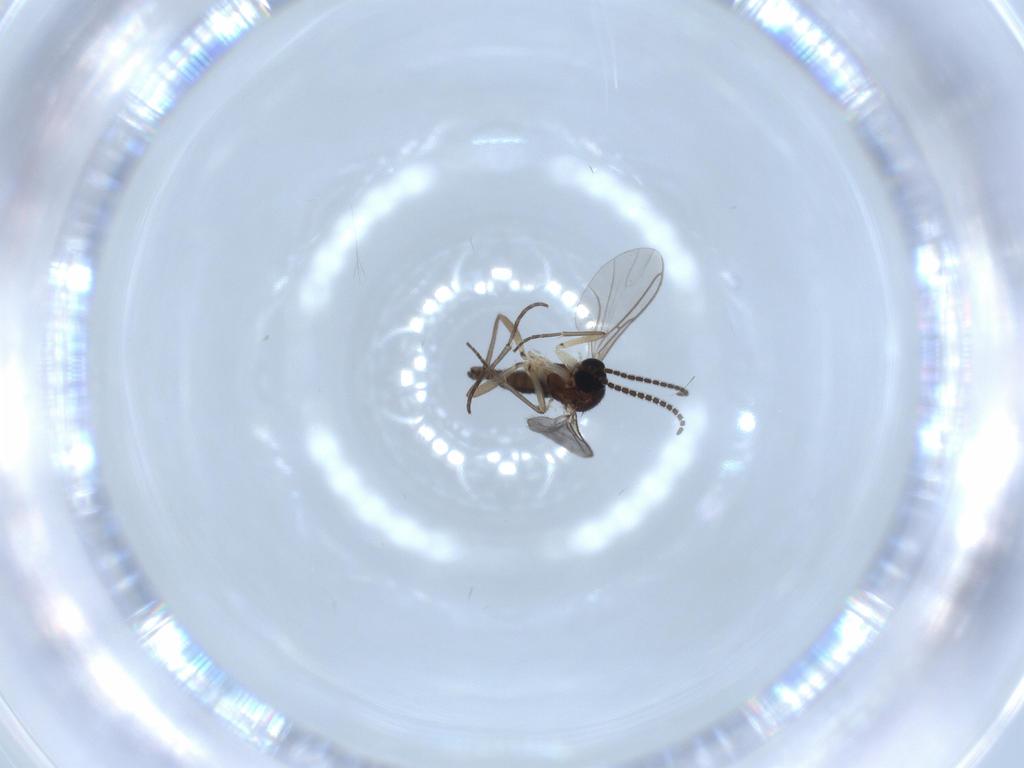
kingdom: Animalia
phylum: Arthropoda
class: Insecta
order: Diptera
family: Sciaridae
